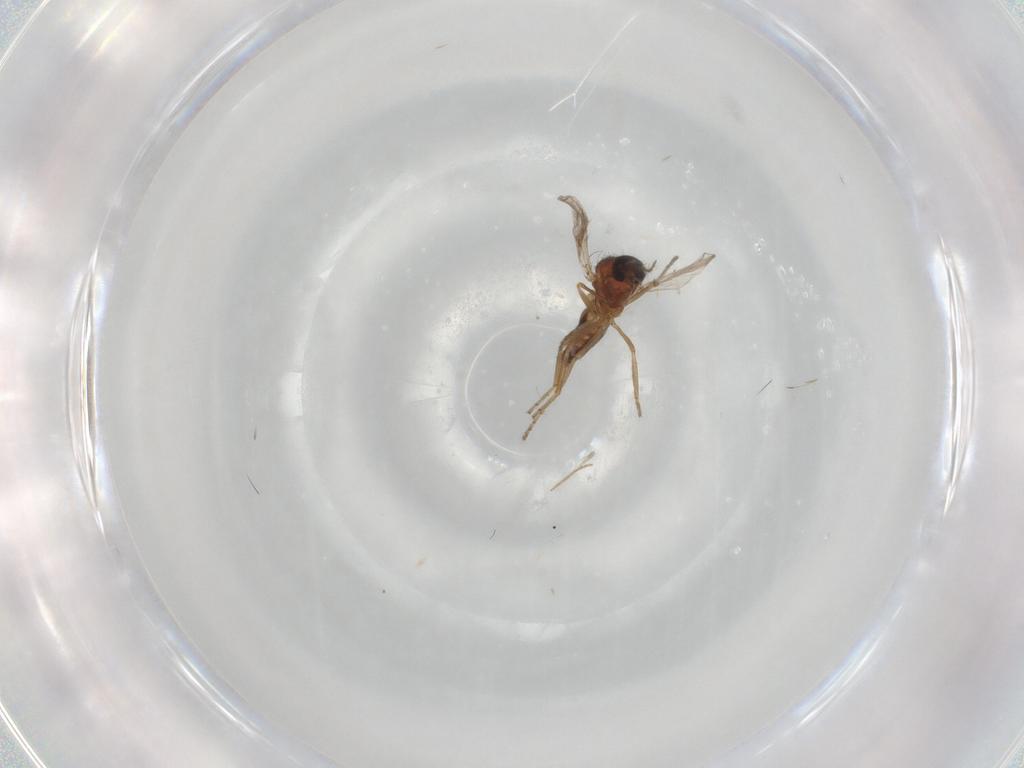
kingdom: Animalia
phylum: Arthropoda
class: Insecta
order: Diptera
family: Ceratopogonidae
